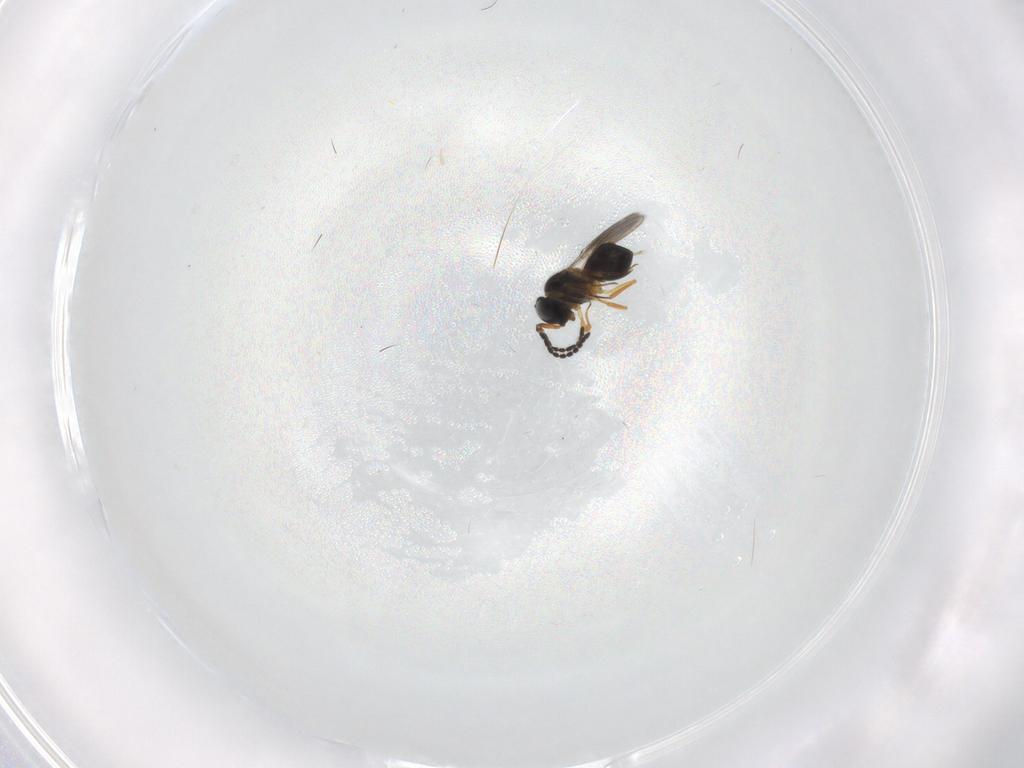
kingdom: Animalia
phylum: Arthropoda
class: Insecta
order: Hymenoptera
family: Scelionidae
